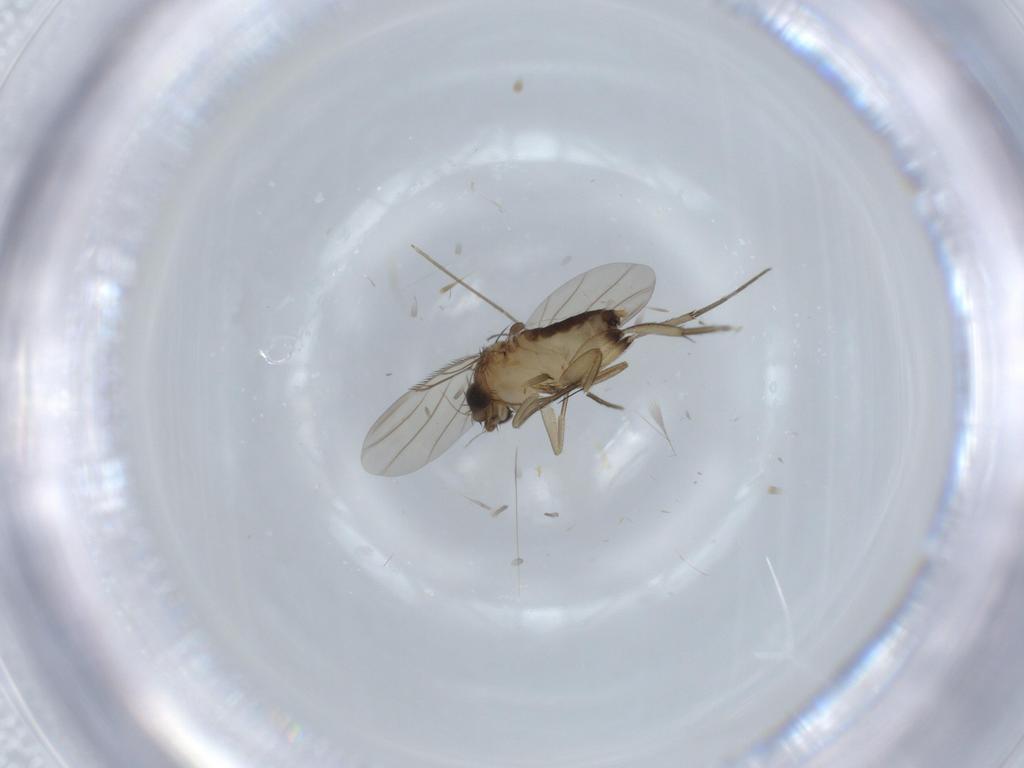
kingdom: Animalia
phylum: Arthropoda
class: Insecta
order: Diptera
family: Phoridae
